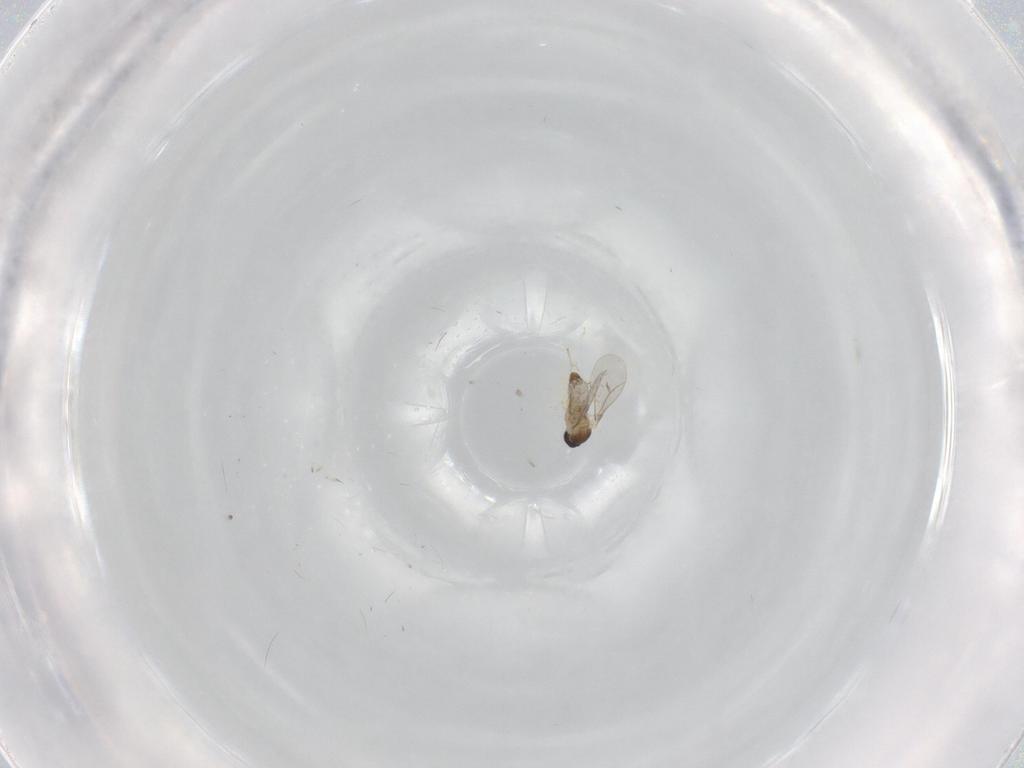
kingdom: Animalia
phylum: Arthropoda
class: Insecta
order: Diptera
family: Cecidomyiidae
